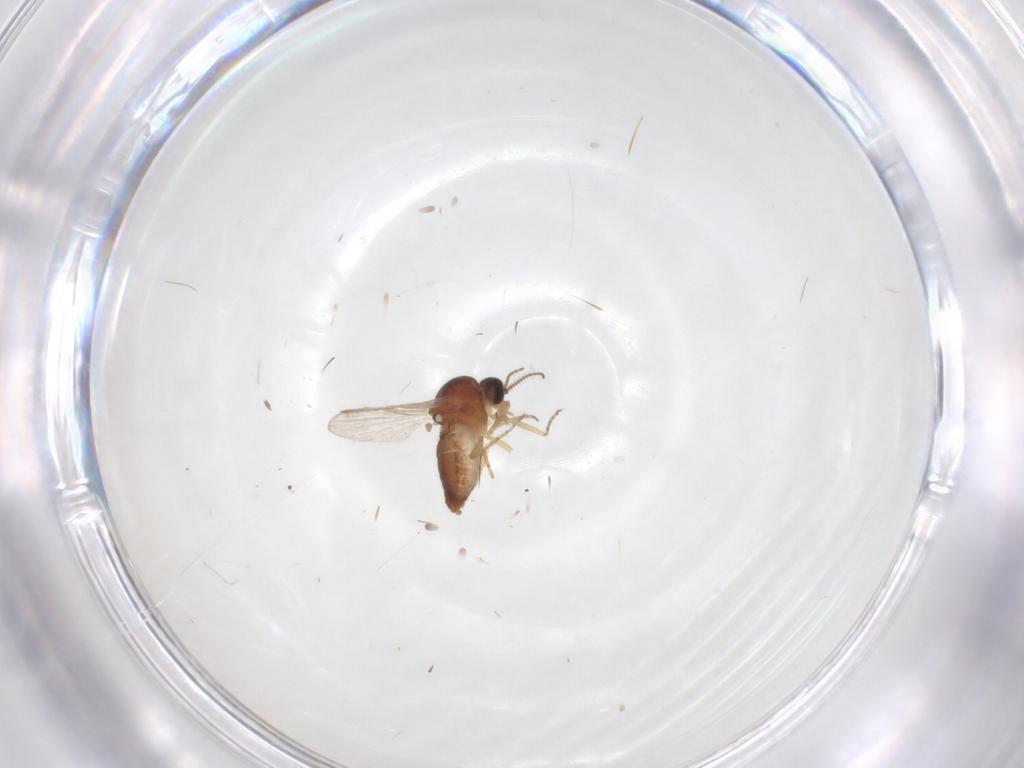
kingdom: Animalia
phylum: Arthropoda
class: Insecta
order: Diptera
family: Ceratopogonidae
